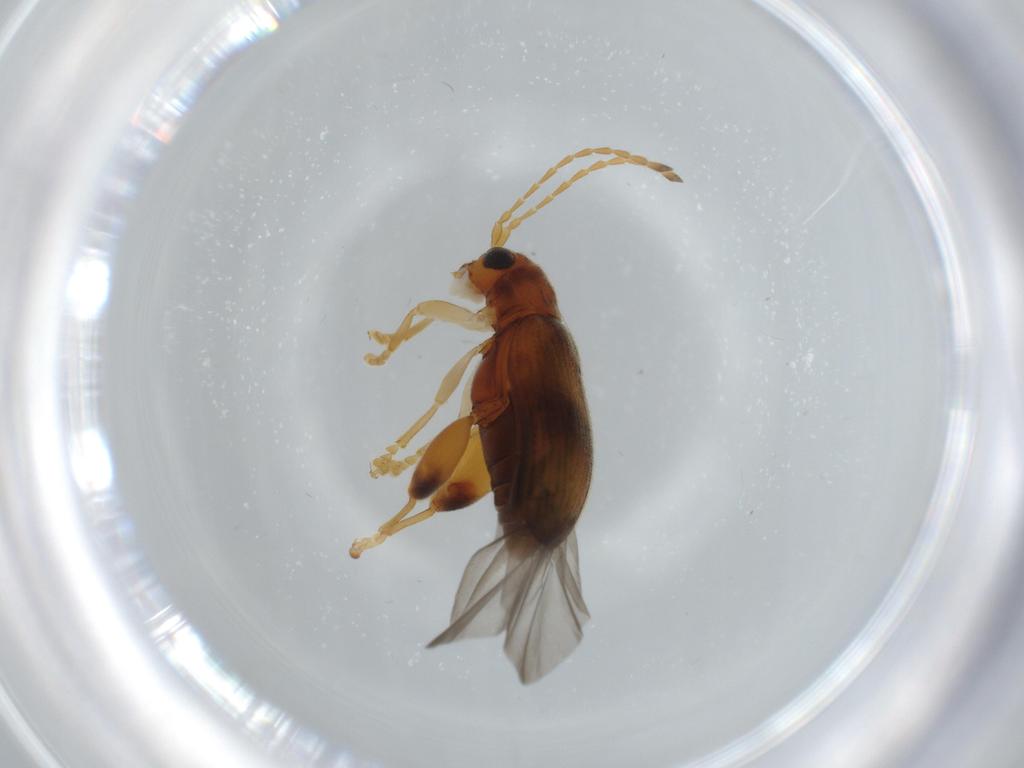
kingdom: Animalia
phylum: Arthropoda
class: Insecta
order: Coleoptera
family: Chrysomelidae
